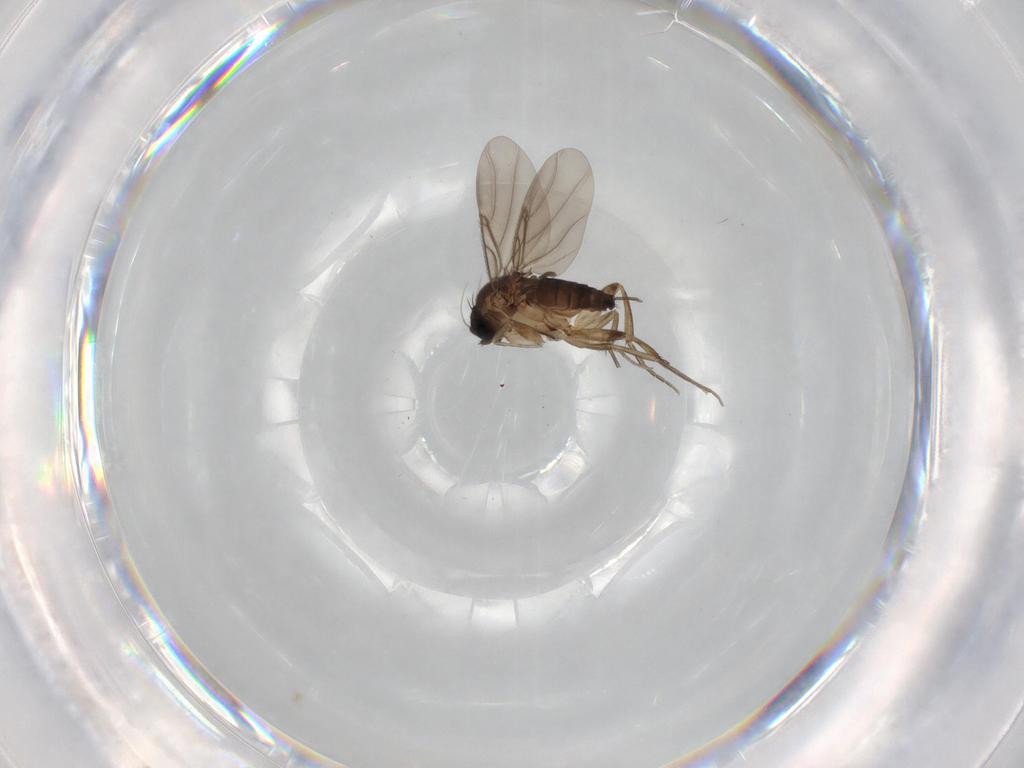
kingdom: Animalia
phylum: Arthropoda
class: Insecta
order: Diptera
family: Phoridae
